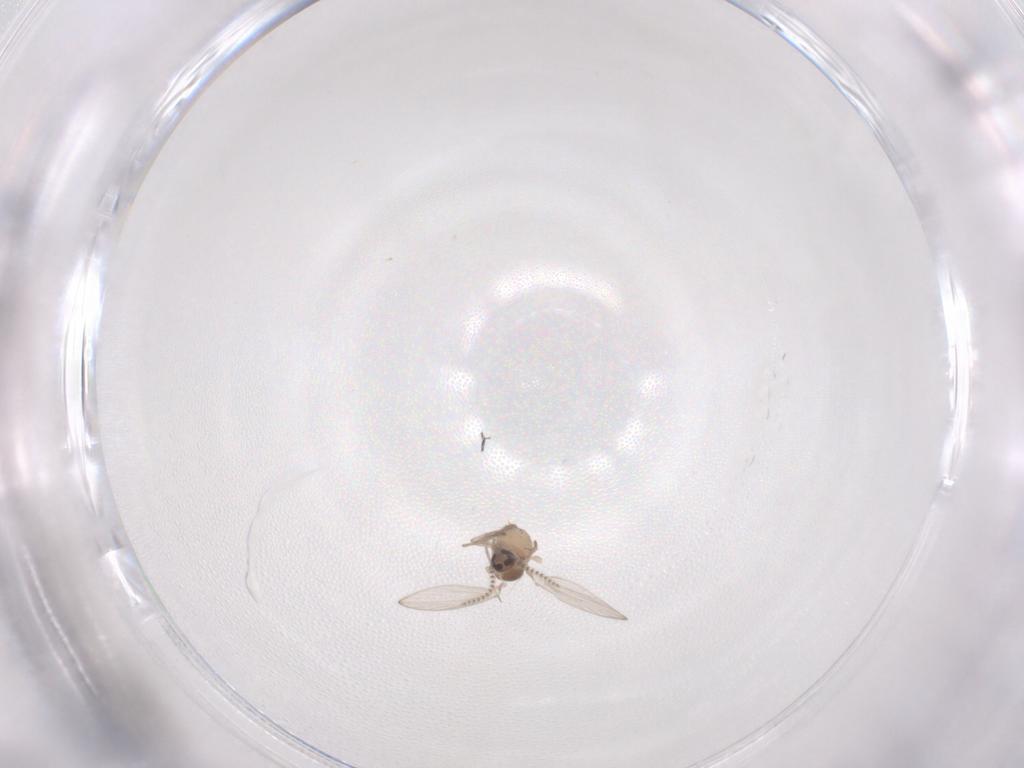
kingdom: Animalia
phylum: Arthropoda
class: Insecta
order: Diptera
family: Psychodidae
